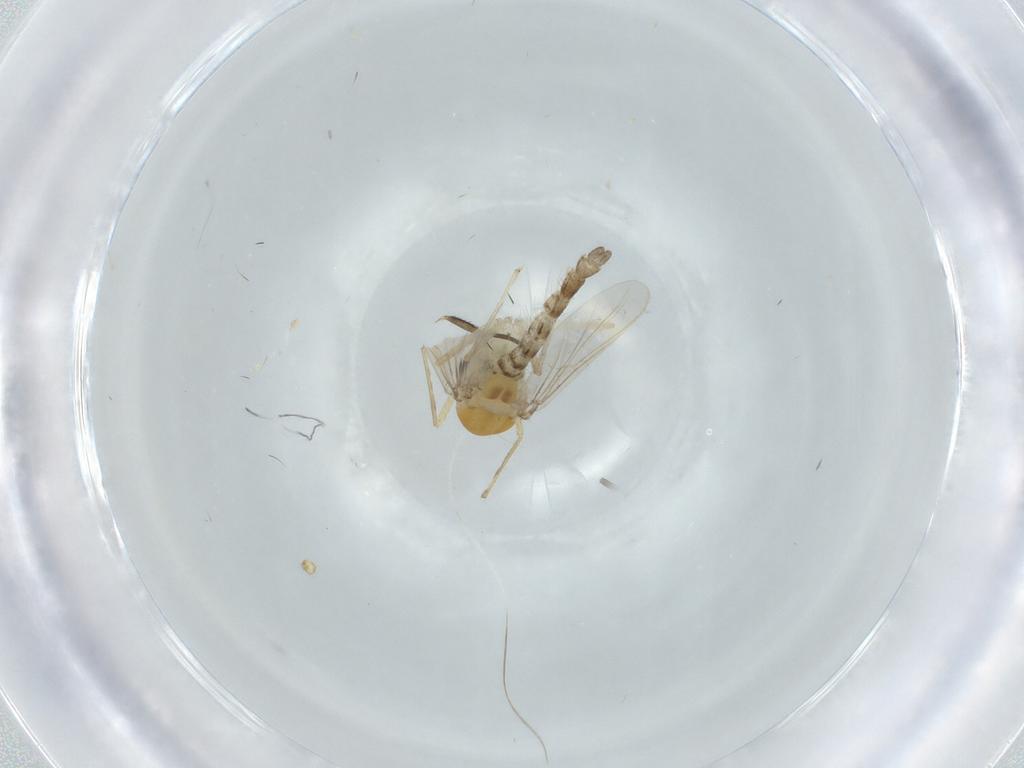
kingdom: Animalia
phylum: Arthropoda
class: Insecta
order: Diptera
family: Chironomidae
